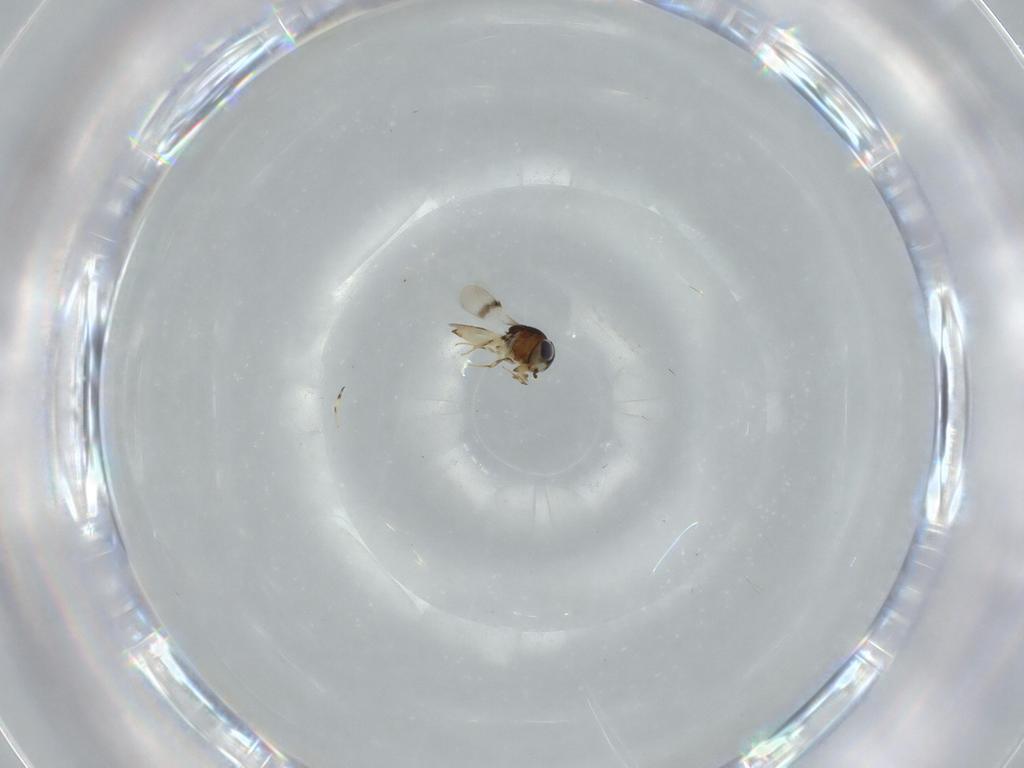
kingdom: Animalia
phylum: Arthropoda
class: Insecta
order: Hymenoptera
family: Scelionidae
